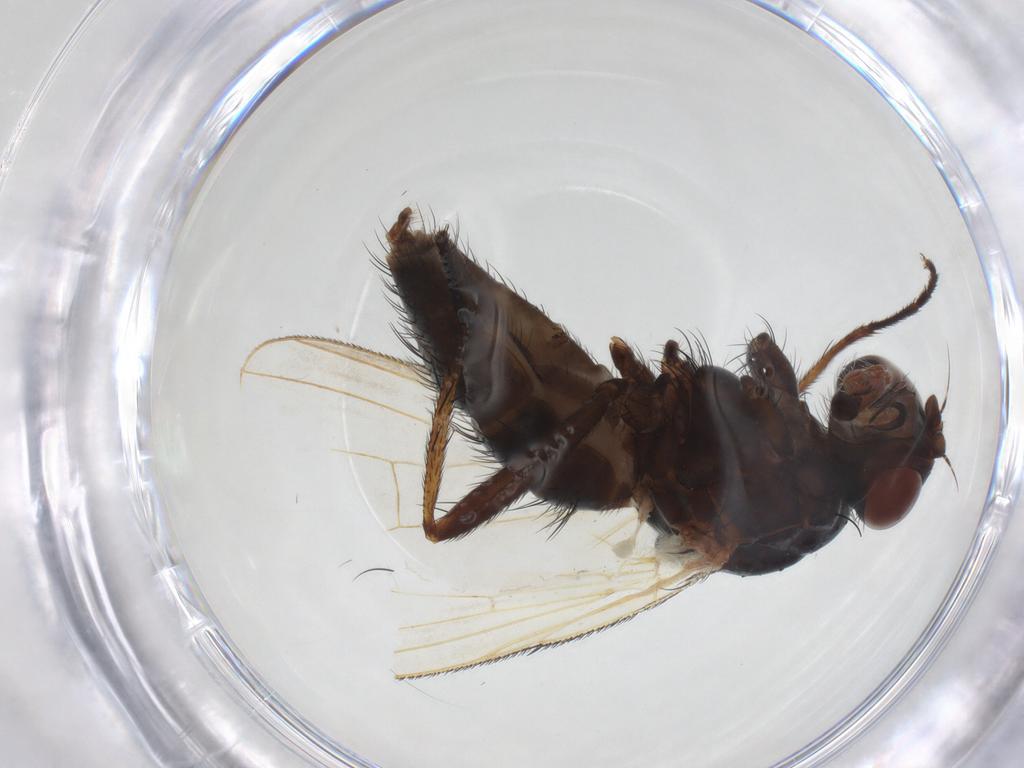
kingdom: Animalia
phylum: Arthropoda
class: Insecta
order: Diptera
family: Anthomyiidae
